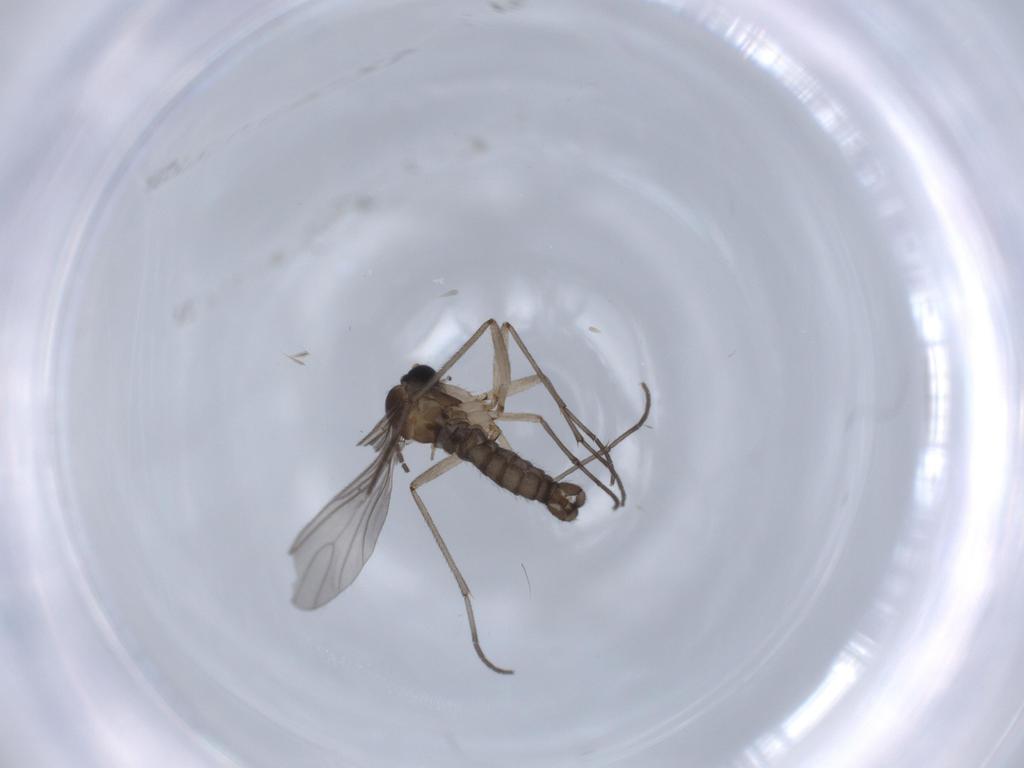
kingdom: Animalia
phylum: Arthropoda
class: Insecta
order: Diptera
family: Sciaridae
